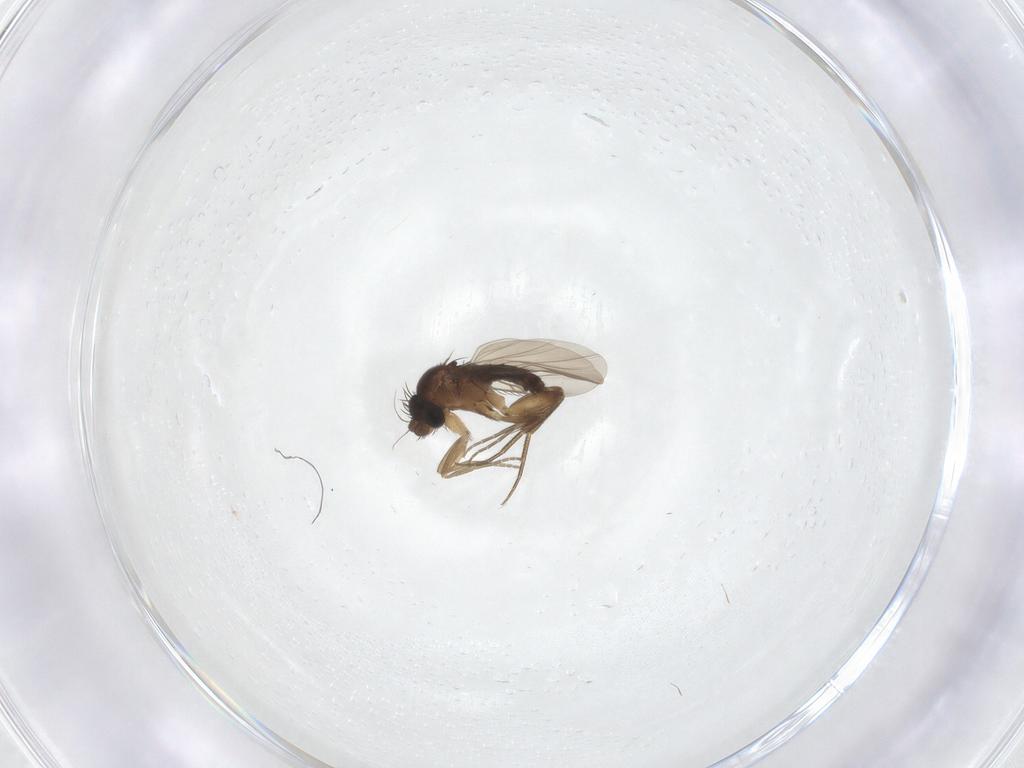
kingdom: Animalia
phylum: Arthropoda
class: Insecta
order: Diptera
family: Phoridae
